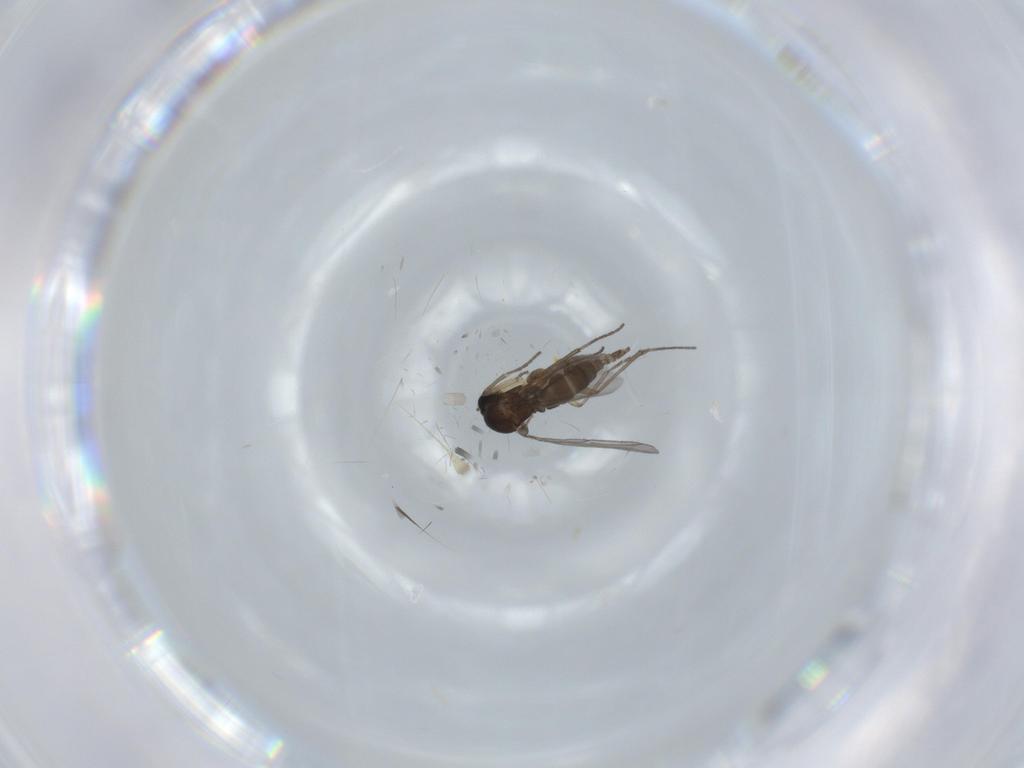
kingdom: Animalia
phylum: Arthropoda
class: Insecta
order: Diptera
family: Sciaridae
